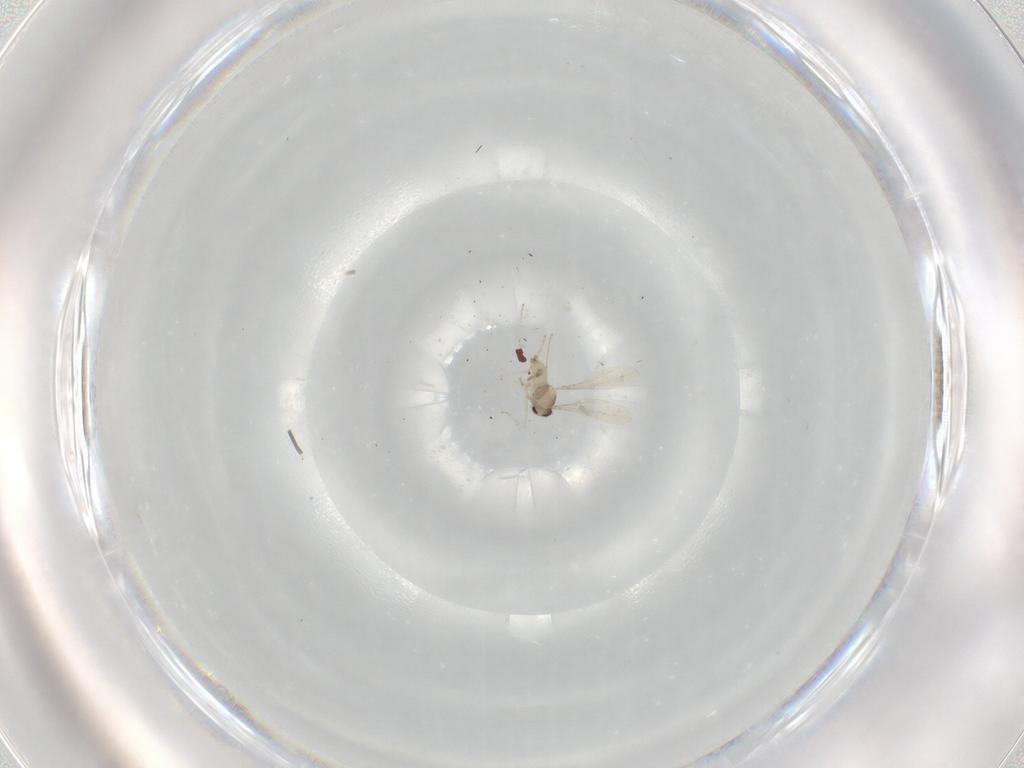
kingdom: Animalia
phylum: Arthropoda
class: Insecta
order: Diptera
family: Cecidomyiidae
